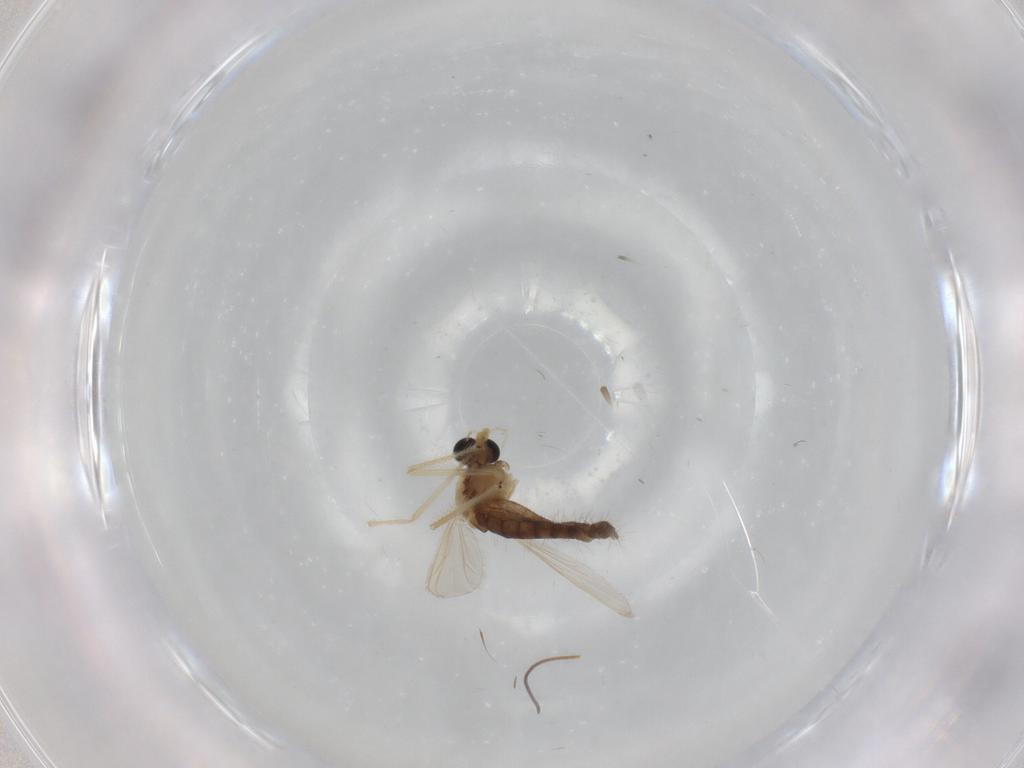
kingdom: Animalia
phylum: Arthropoda
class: Insecta
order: Diptera
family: Chironomidae
